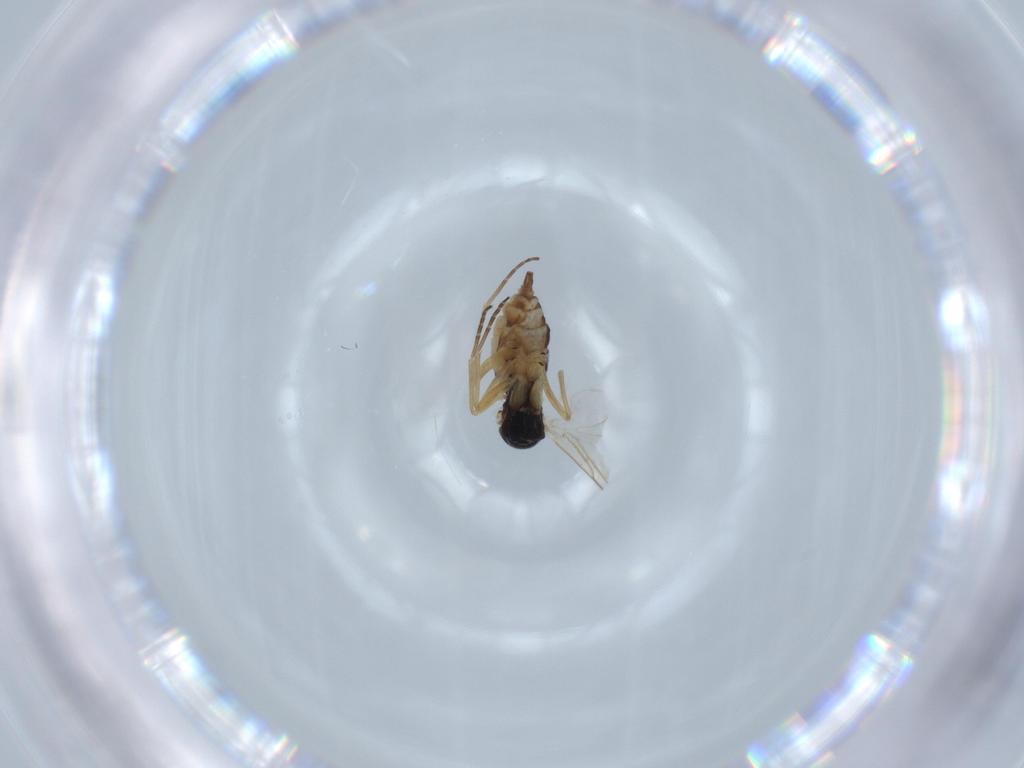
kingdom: Animalia
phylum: Arthropoda
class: Insecta
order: Diptera
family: Sciaridae
